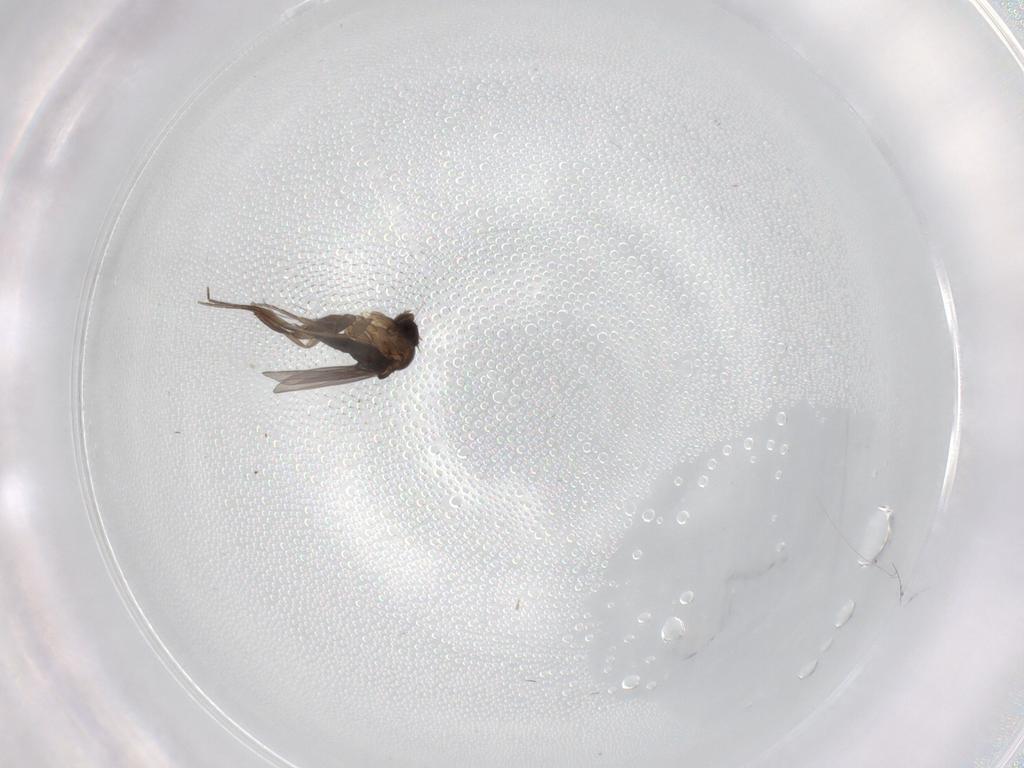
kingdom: Animalia
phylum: Arthropoda
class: Insecta
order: Diptera
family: Phoridae
